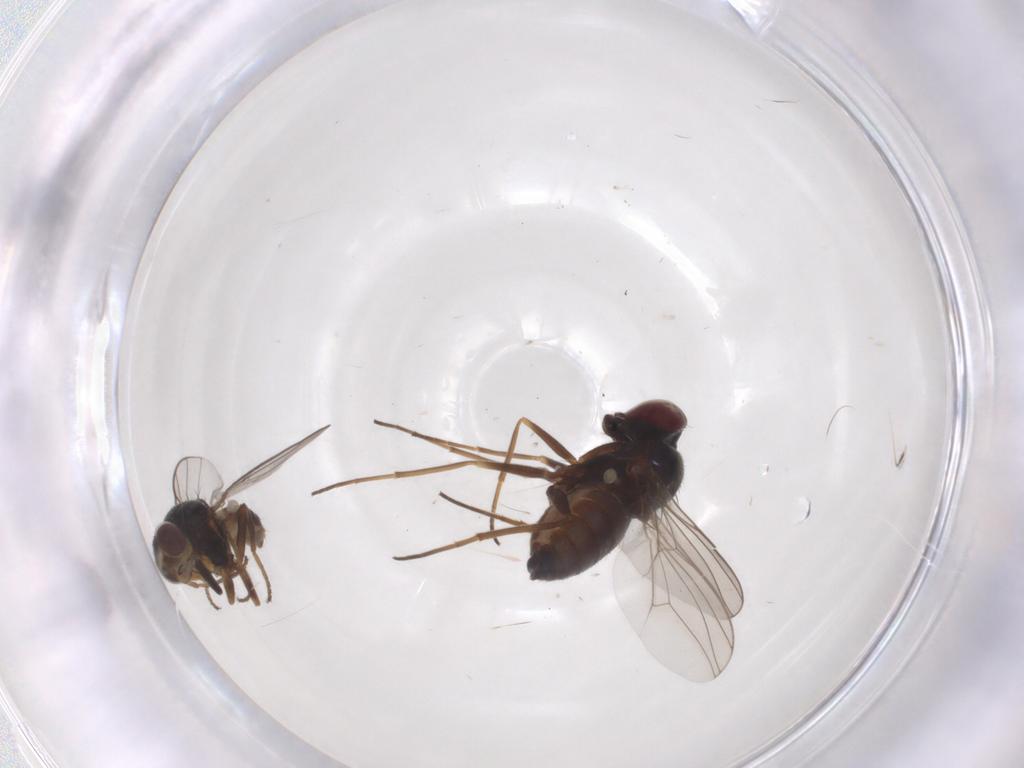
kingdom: Animalia
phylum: Arthropoda
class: Insecta
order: Diptera
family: Dolichopodidae
